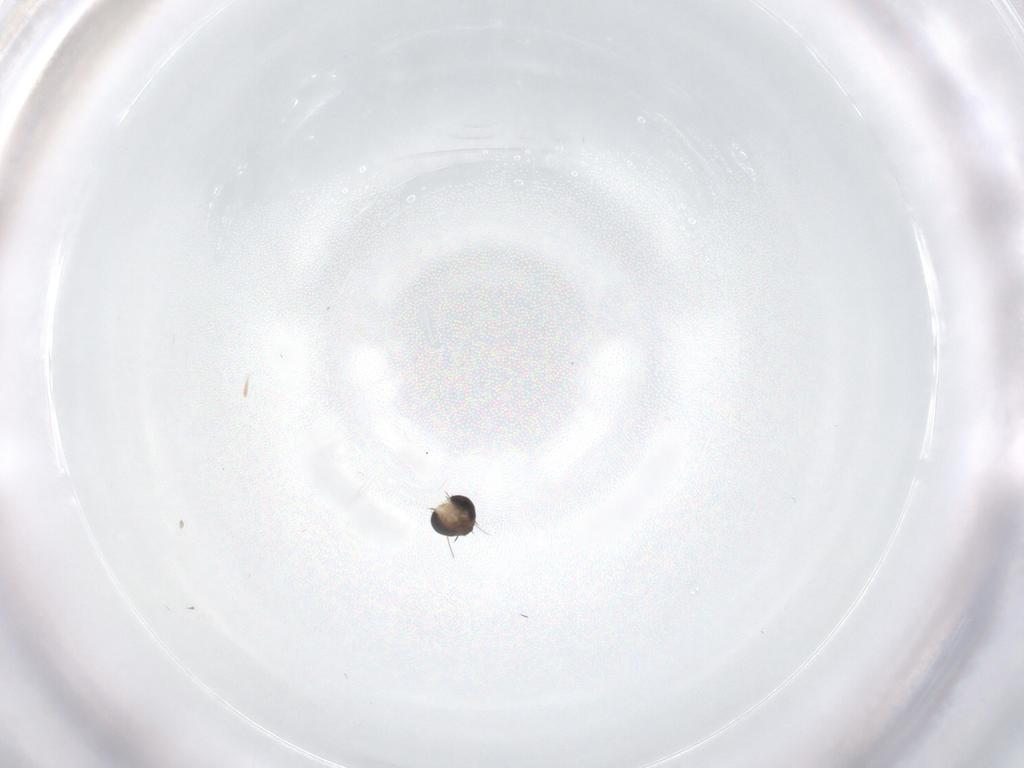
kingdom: Animalia
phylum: Arthropoda
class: Insecta
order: Diptera
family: Phoridae
